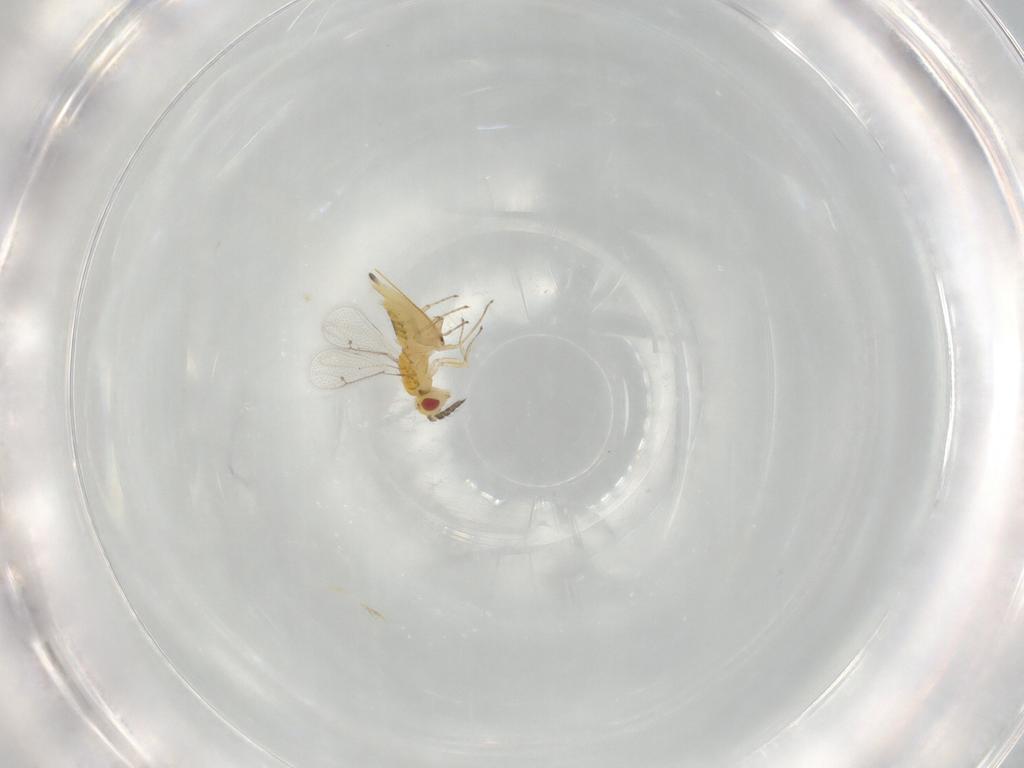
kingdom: Animalia
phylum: Arthropoda
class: Insecta
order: Hymenoptera
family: Eulophidae
